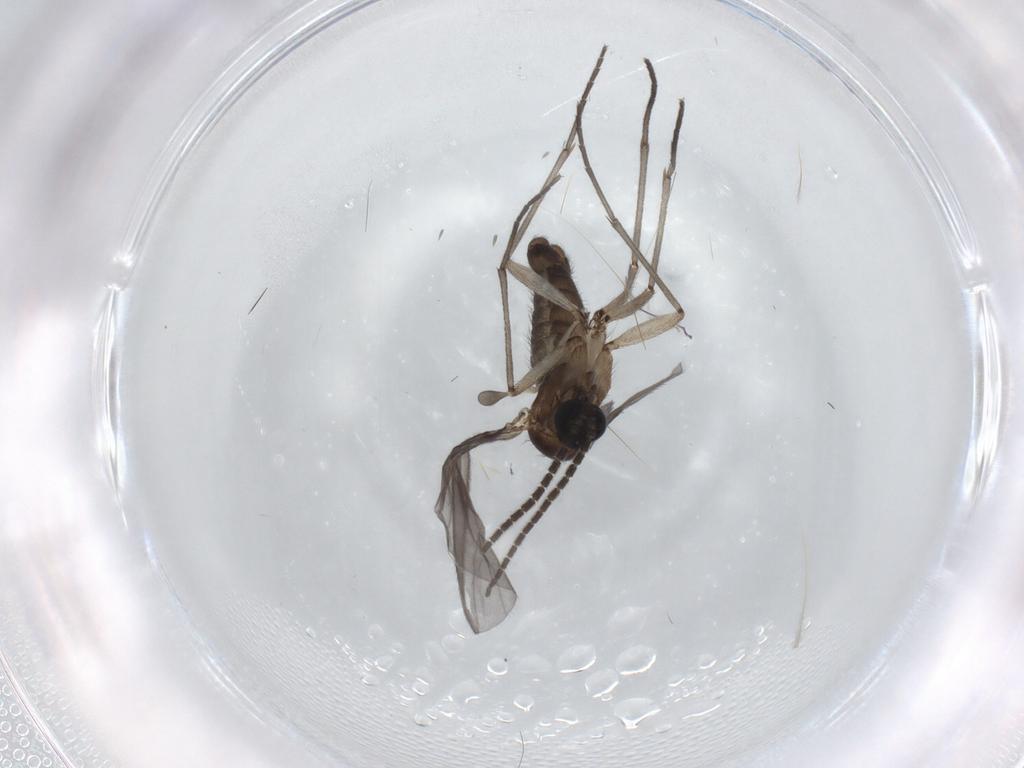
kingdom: Animalia
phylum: Arthropoda
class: Insecta
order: Diptera
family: Sciaridae
